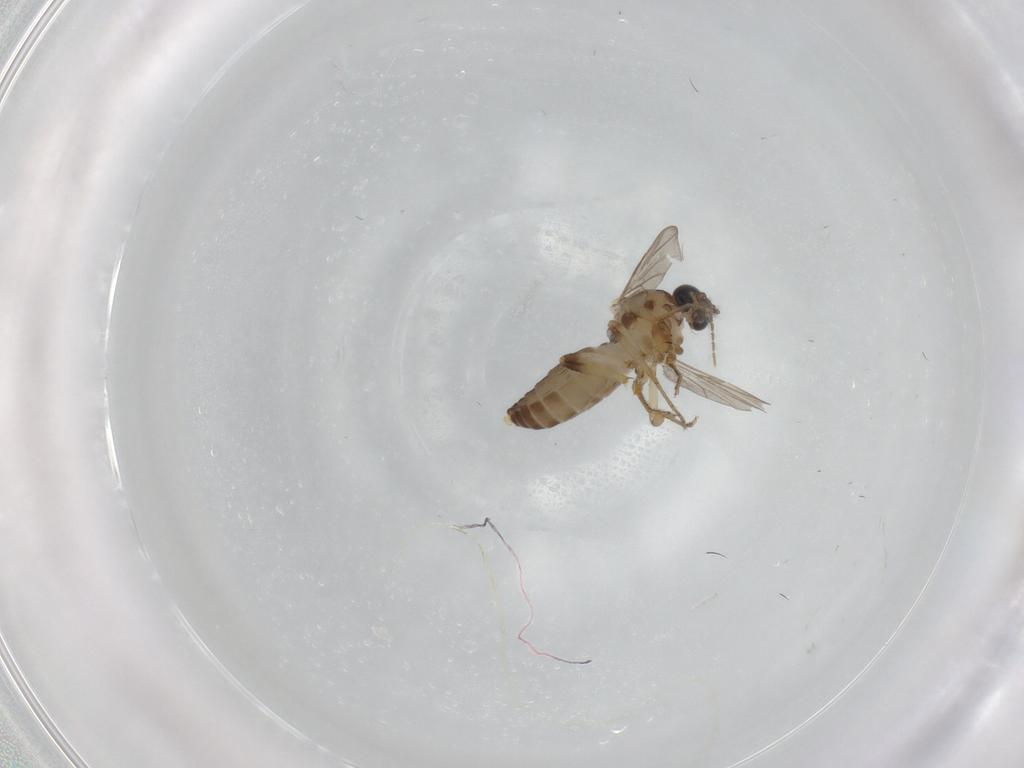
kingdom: Animalia
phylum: Arthropoda
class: Insecta
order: Diptera
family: Ceratopogonidae
